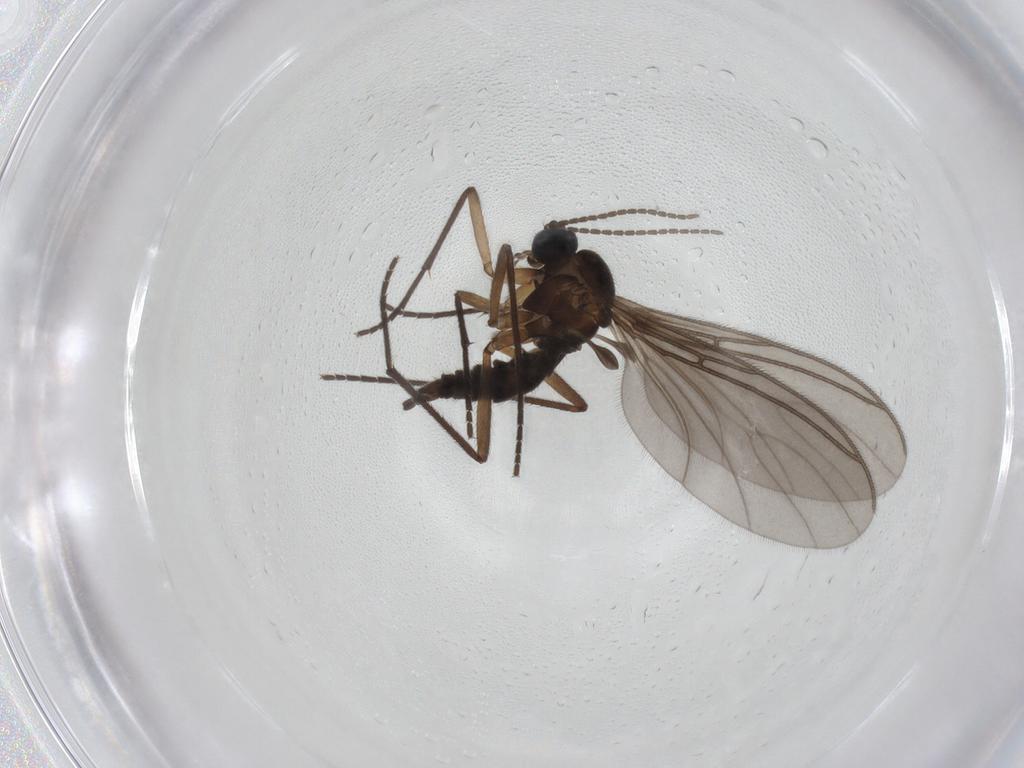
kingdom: Animalia
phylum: Arthropoda
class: Insecta
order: Diptera
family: Sciaridae
